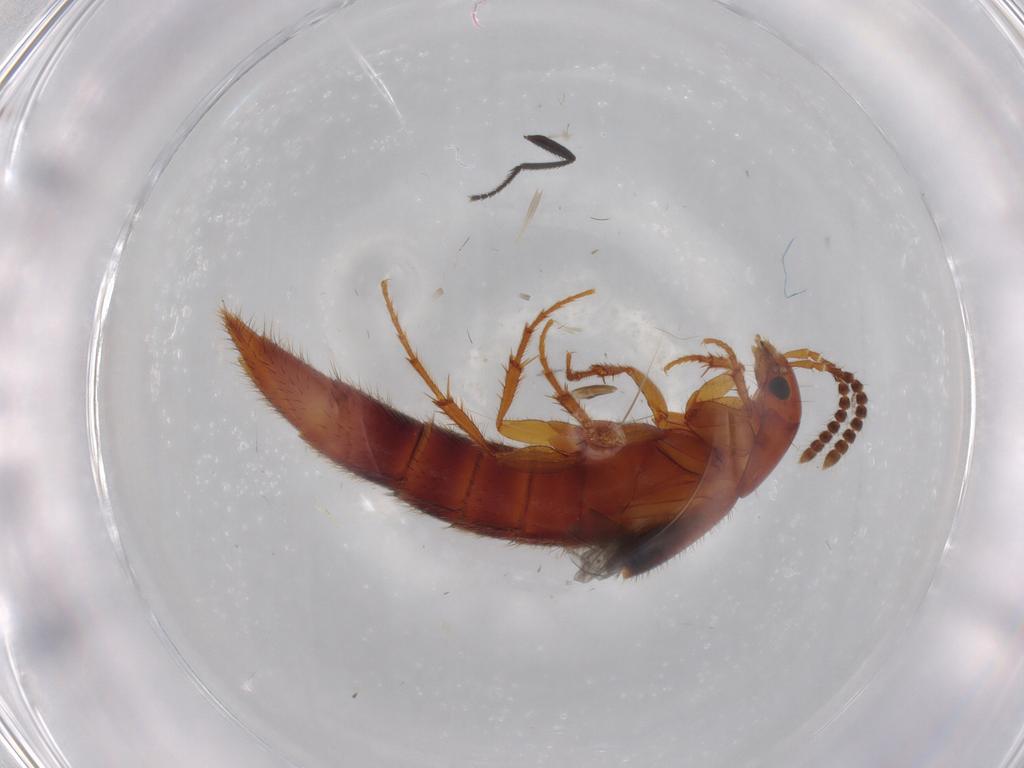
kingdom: Animalia
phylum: Arthropoda
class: Insecta
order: Coleoptera
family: Staphylinidae
